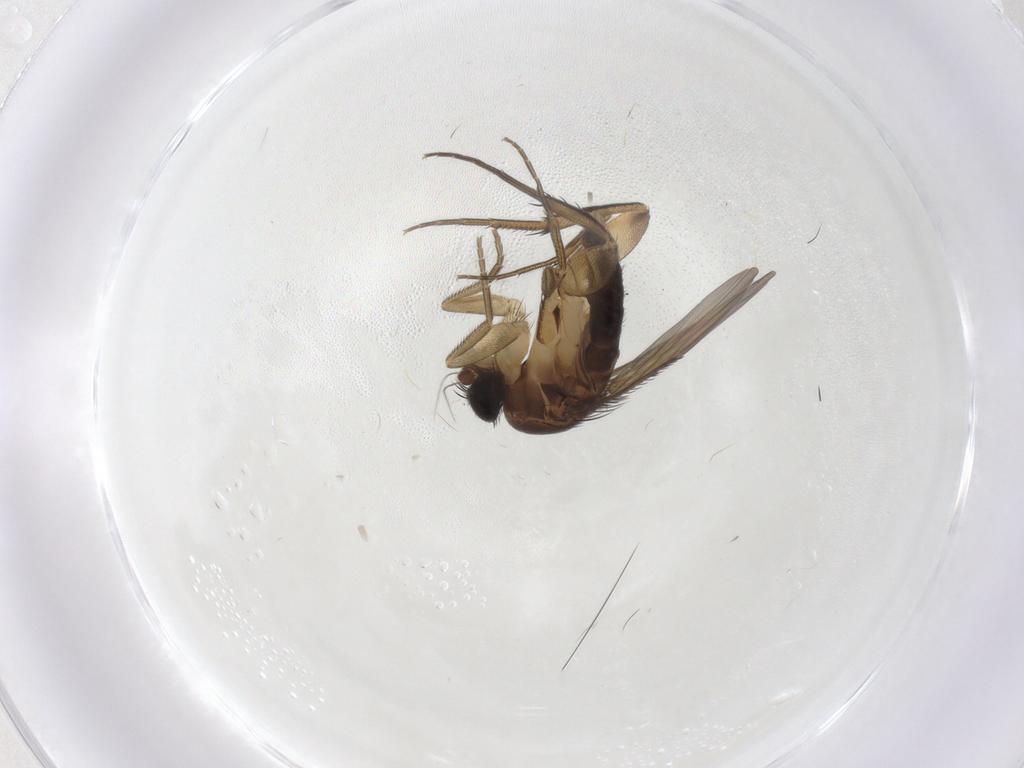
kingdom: Animalia
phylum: Arthropoda
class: Insecta
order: Diptera
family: Phoridae
